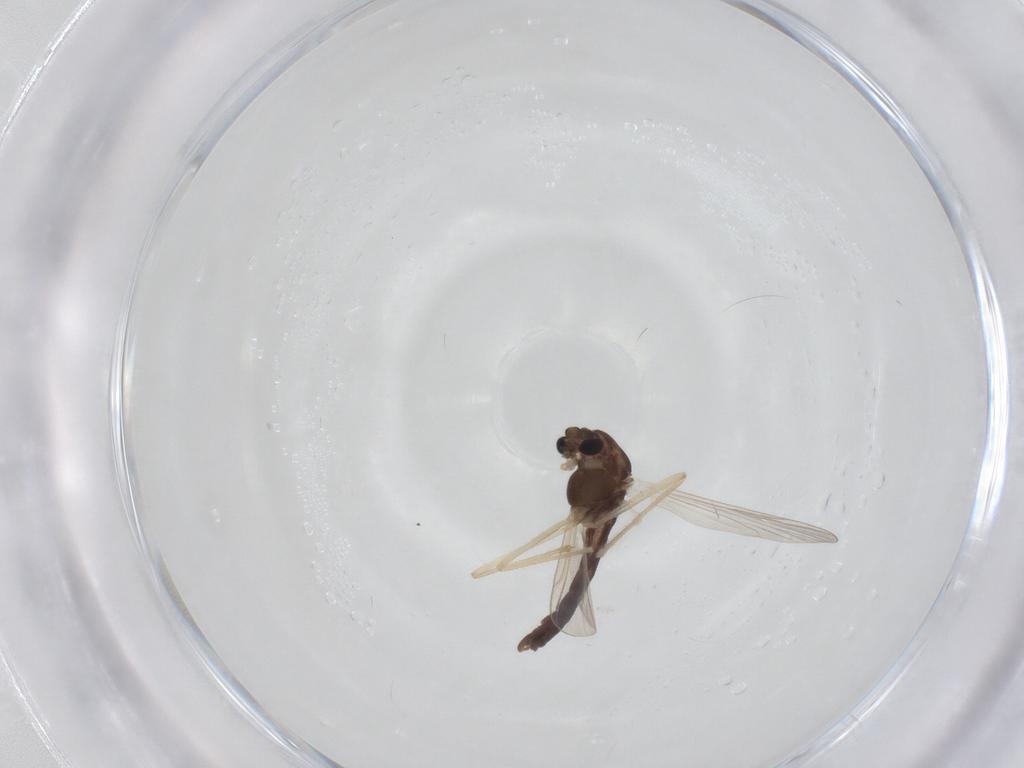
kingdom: Animalia
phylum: Arthropoda
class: Insecta
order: Diptera
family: Chironomidae
